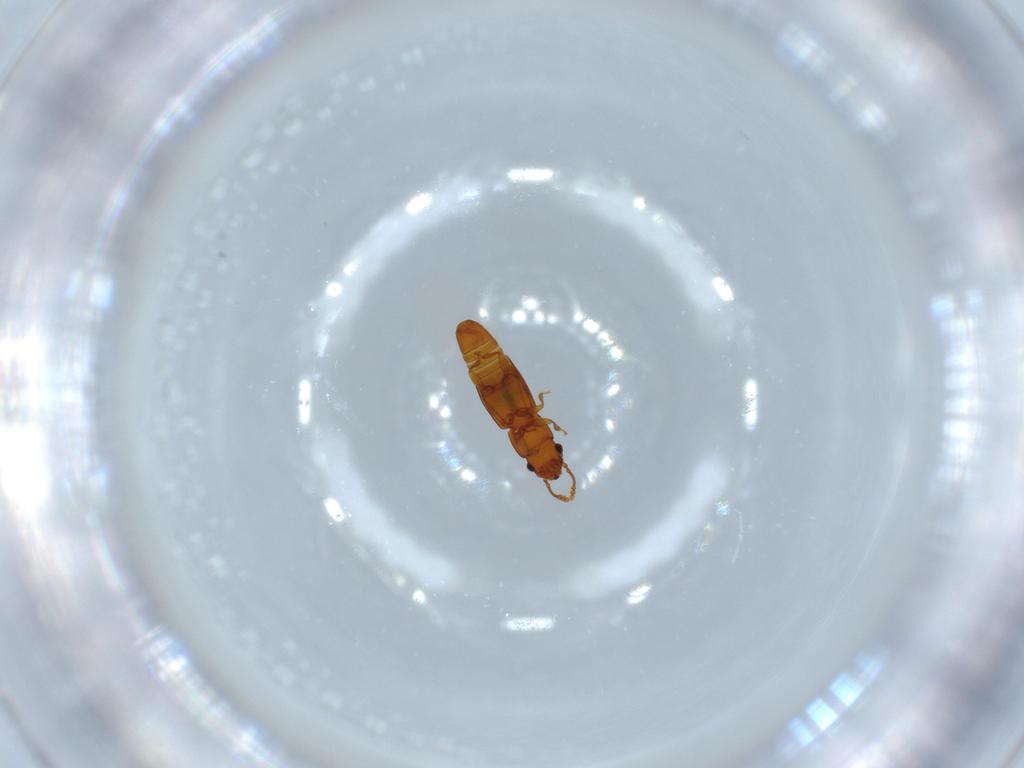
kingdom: Animalia
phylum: Arthropoda
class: Insecta
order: Coleoptera
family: Smicripidae
